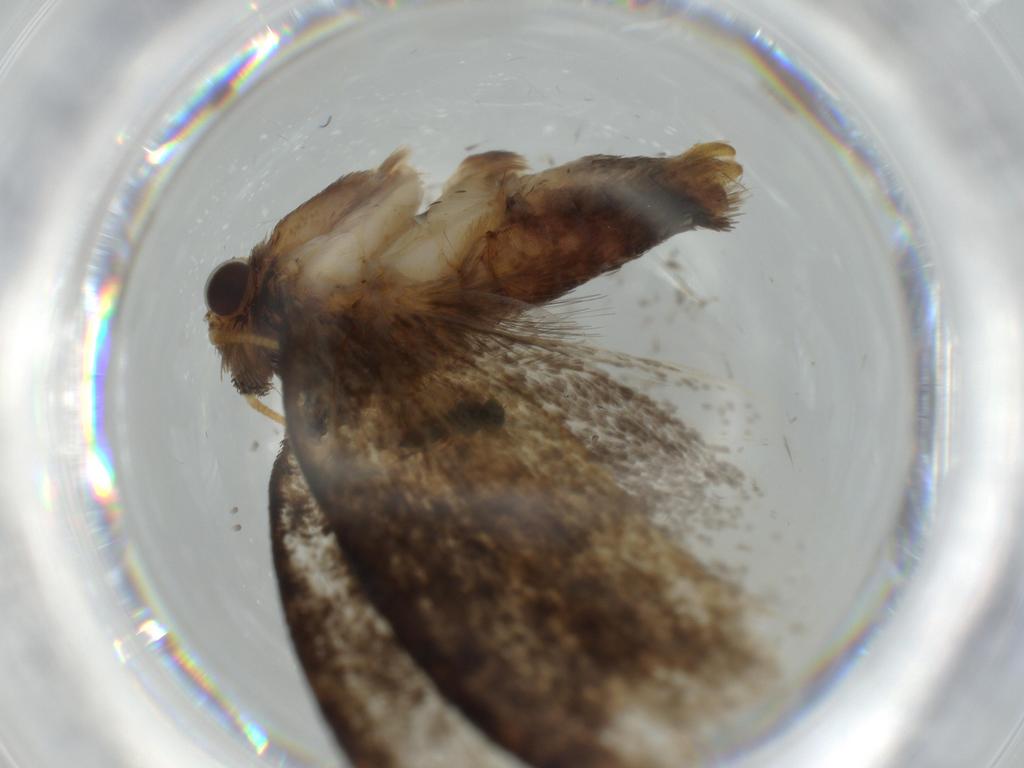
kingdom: Animalia
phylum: Arthropoda
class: Insecta
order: Lepidoptera
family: Tineidae
